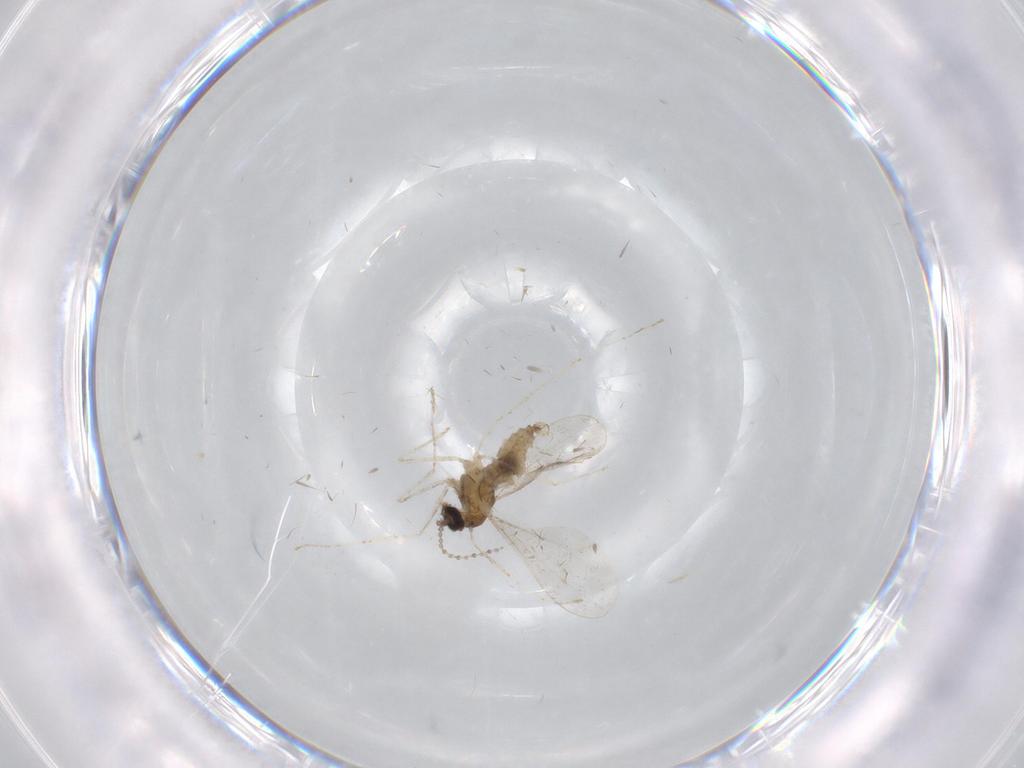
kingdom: Animalia
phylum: Arthropoda
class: Insecta
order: Diptera
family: Cecidomyiidae
